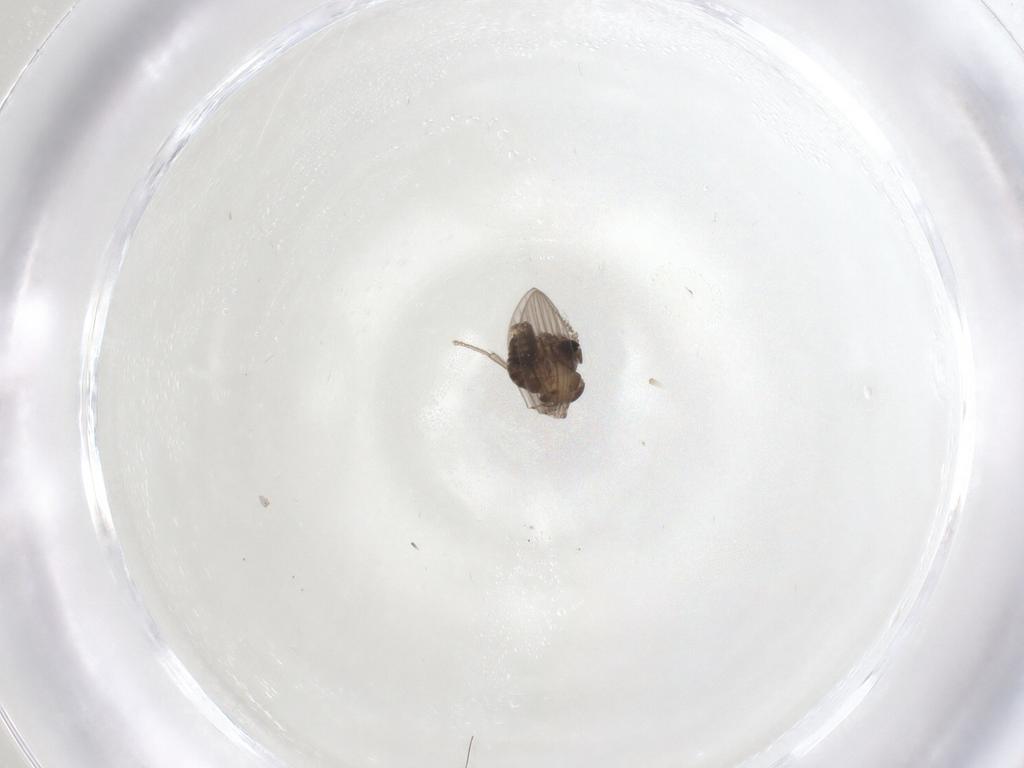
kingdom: Animalia
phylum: Arthropoda
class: Insecta
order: Diptera
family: Psychodidae
